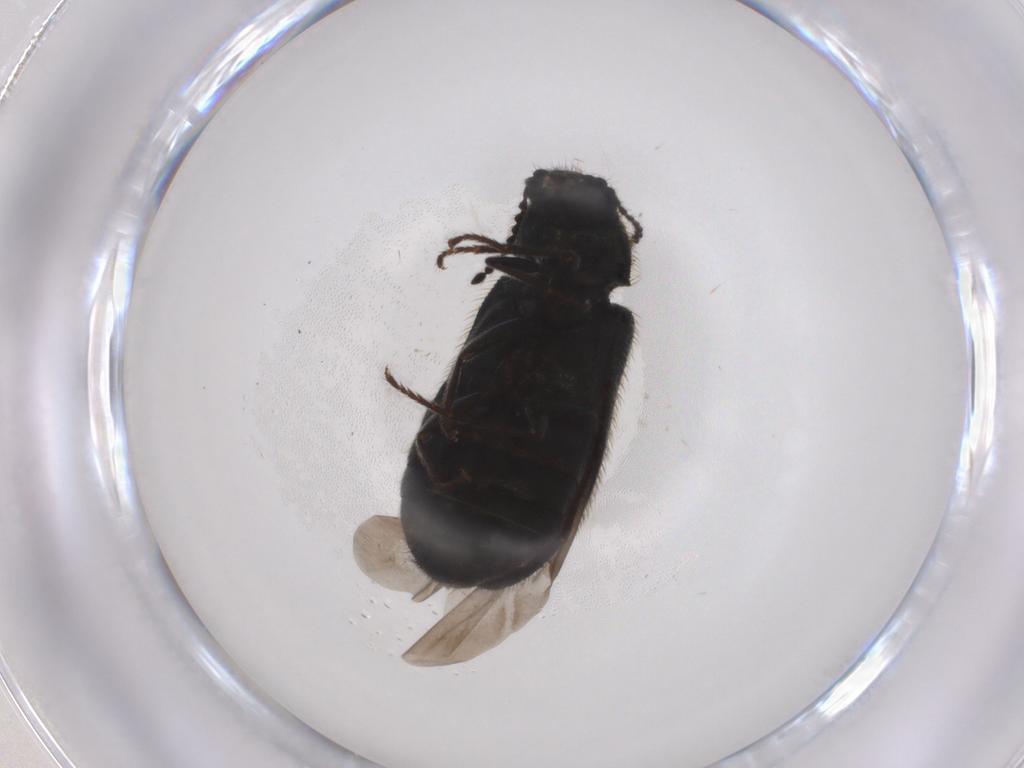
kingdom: Animalia
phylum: Arthropoda
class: Insecta
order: Coleoptera
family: Melyridae
